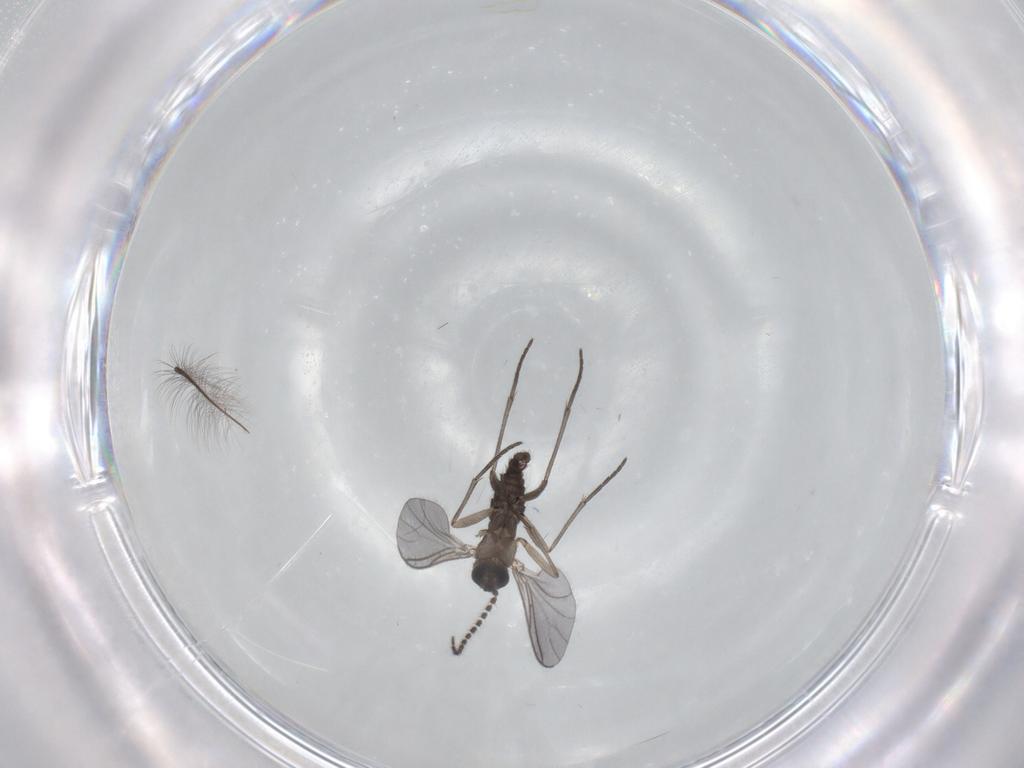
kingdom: Animalia
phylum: Arthropoda
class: Insecta
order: Diptera
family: Sciaridae
